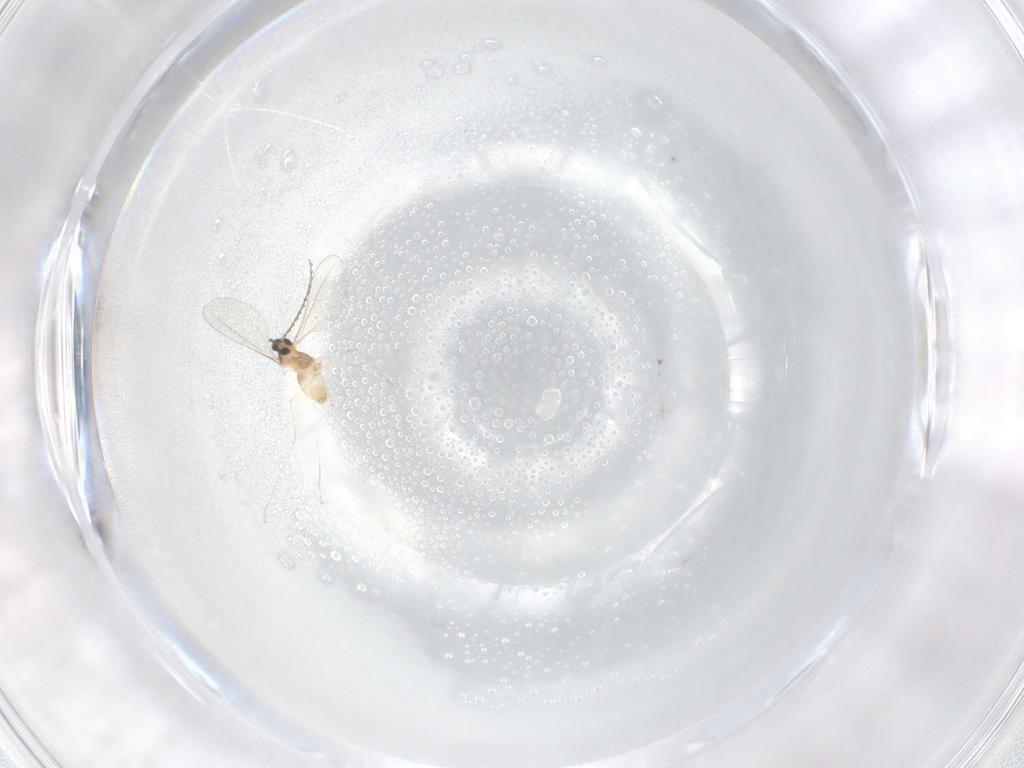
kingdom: Animalia
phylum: Arthropoda
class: Insecta
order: Diptera
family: Cecidomyiidae
